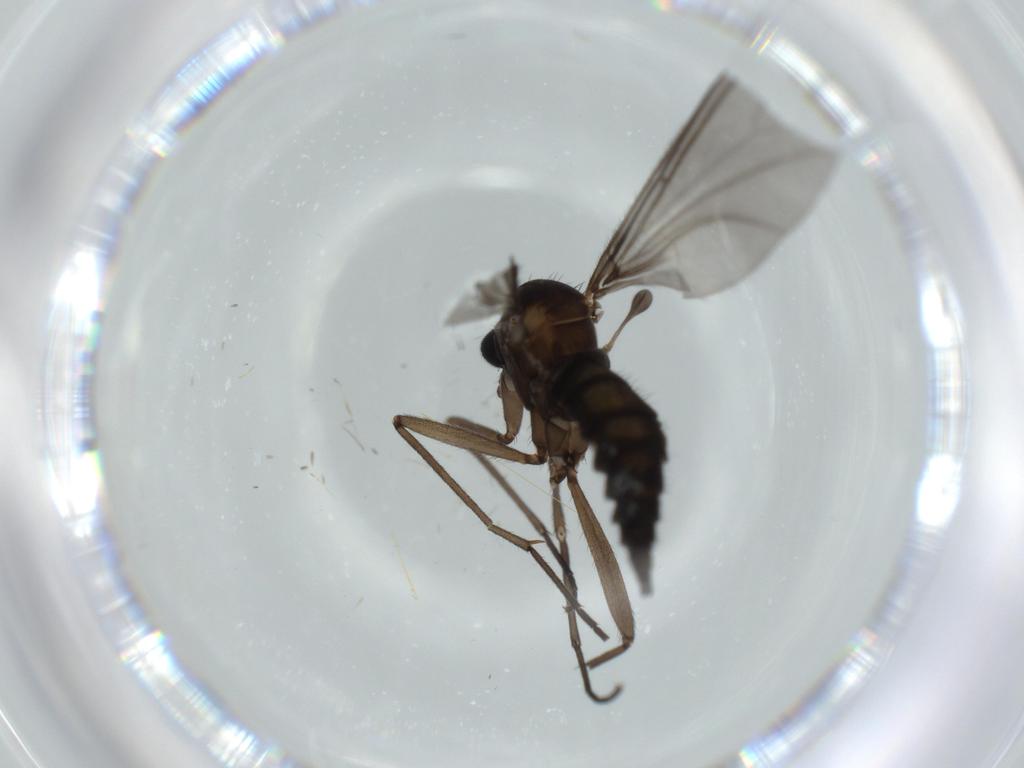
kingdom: Animalia
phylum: Arthropoda
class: Insecta
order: Diptera
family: Sciaridae
